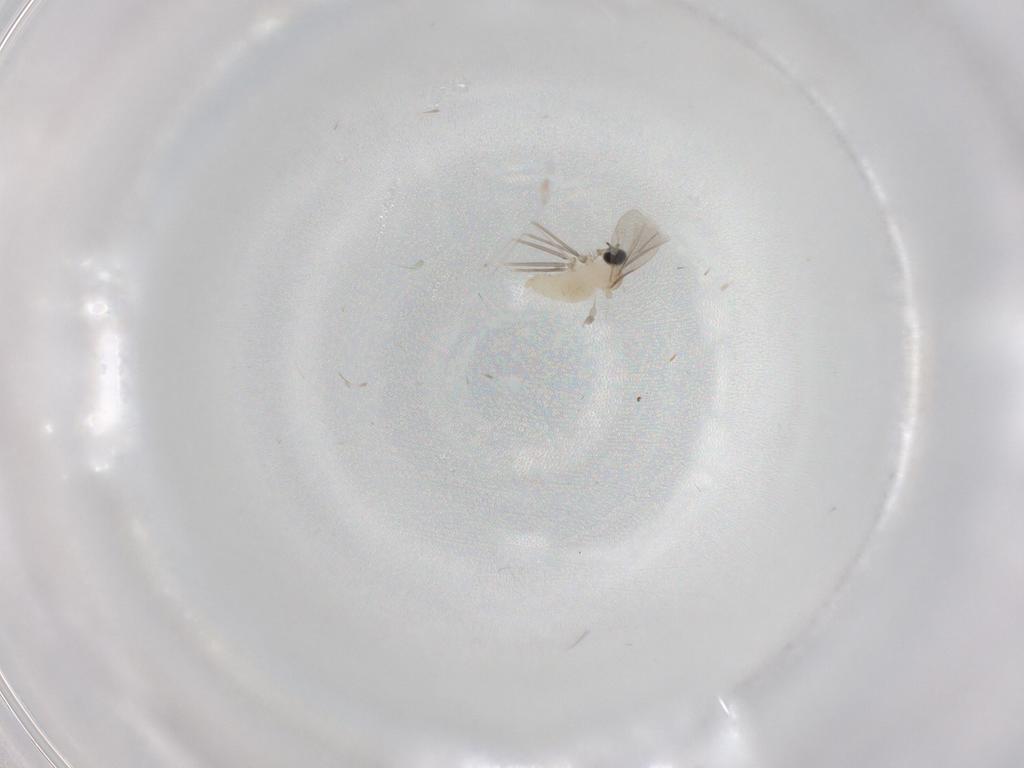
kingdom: Animalia
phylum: Arthropoda
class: Insecta
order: Diptera
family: Cecidomyiidae
